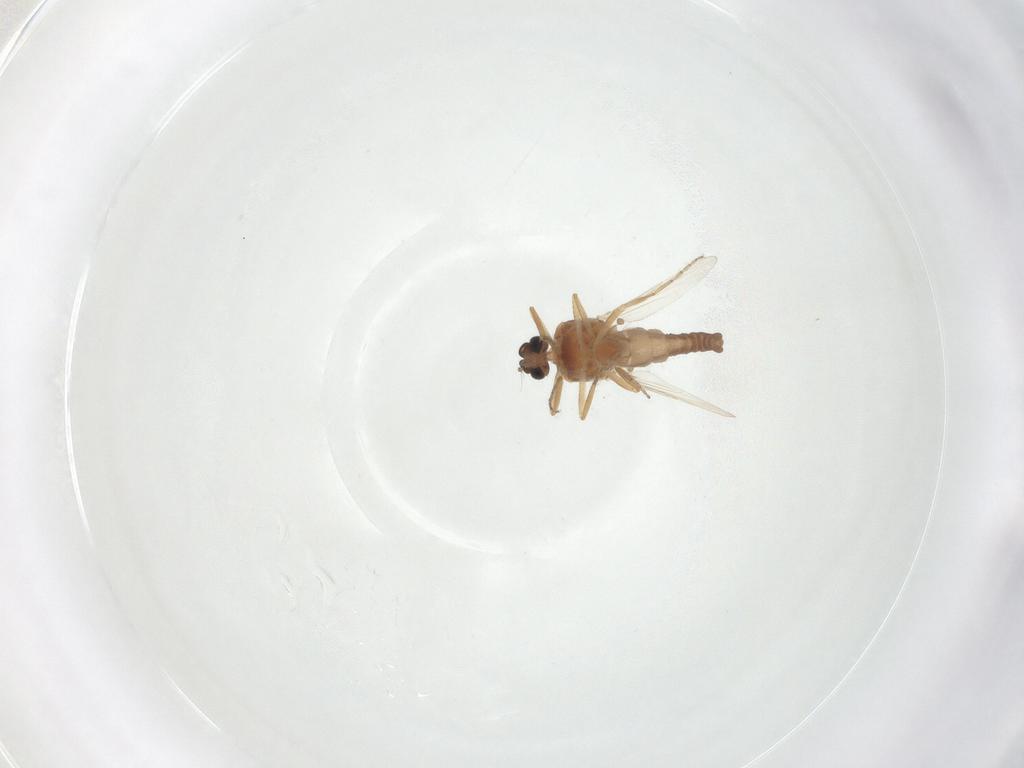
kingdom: Animalia
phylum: Arthropoda
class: Insecta
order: Diptera
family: Ceratopogonidae
